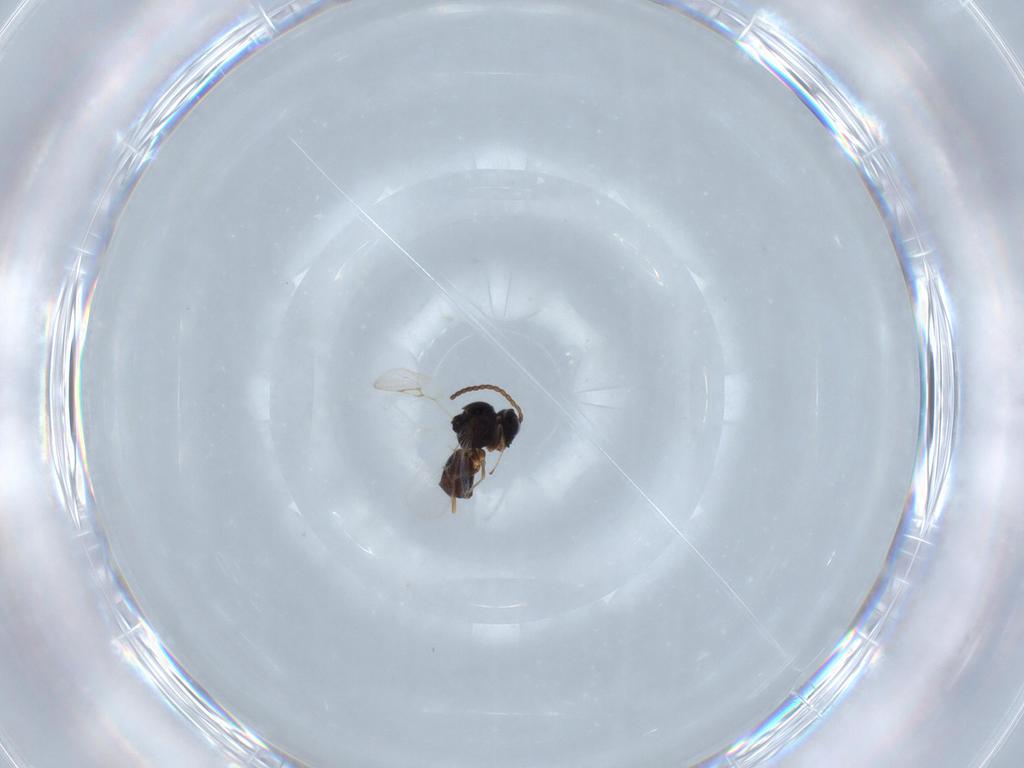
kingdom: Animalia
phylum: Arthropoda
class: Insecta
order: Hymenoptera
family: Figitidae
